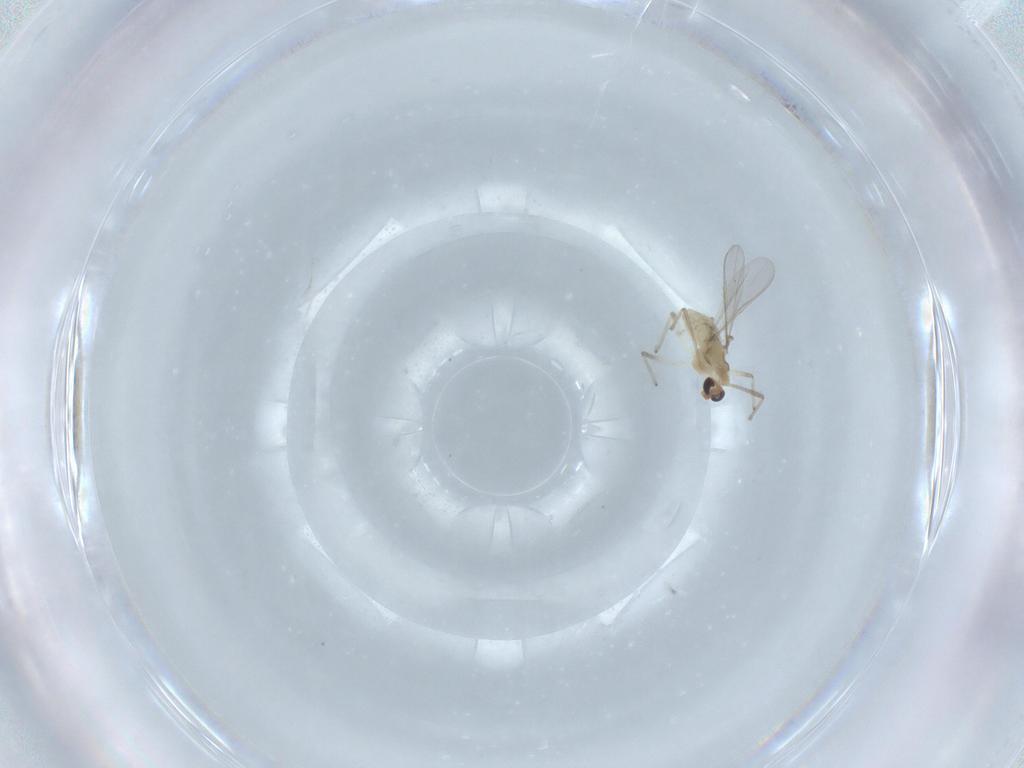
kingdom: Animalia
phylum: Arthropoda
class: Insecta
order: Diptera
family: Chironomidae
